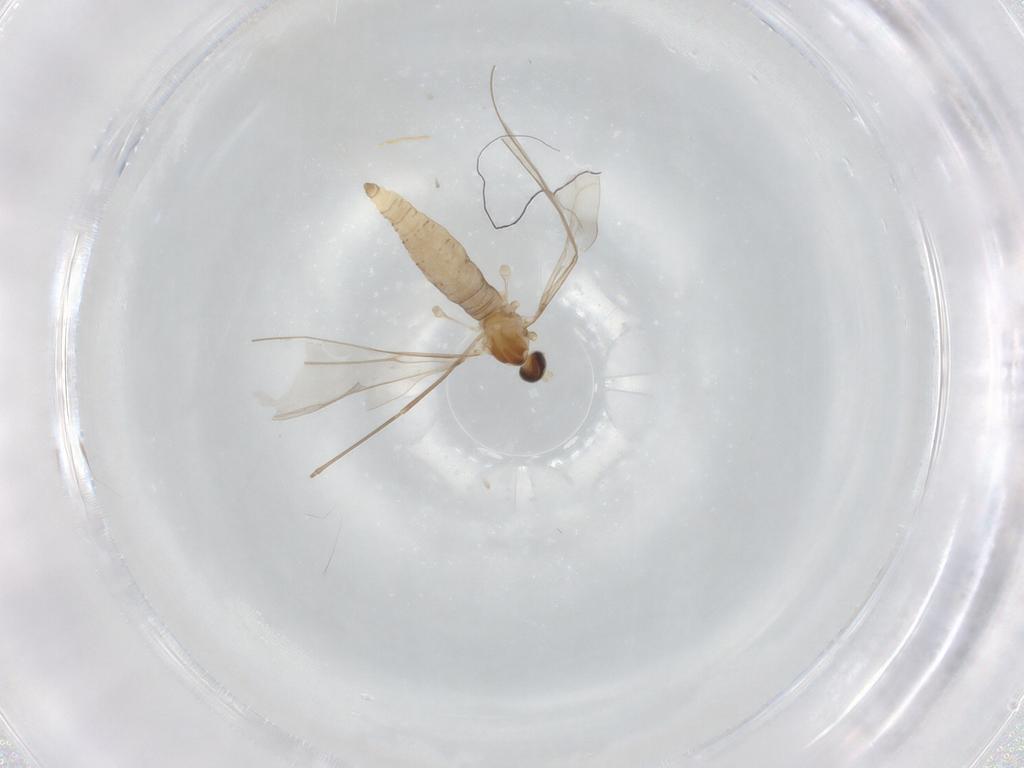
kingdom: Animalia
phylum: Arthropoda
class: Insecta
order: Diptera
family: Cecidomyiidae
